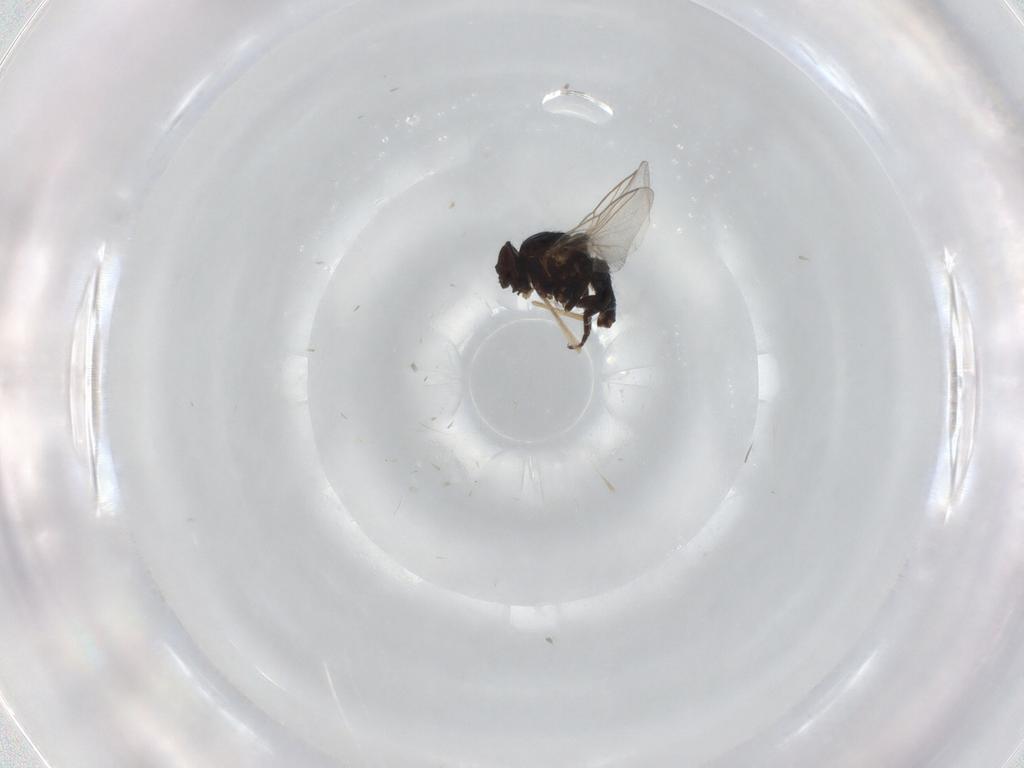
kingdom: Animalia
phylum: Arthropoda
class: Insecta
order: Diptera
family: Cecidomyiidae
